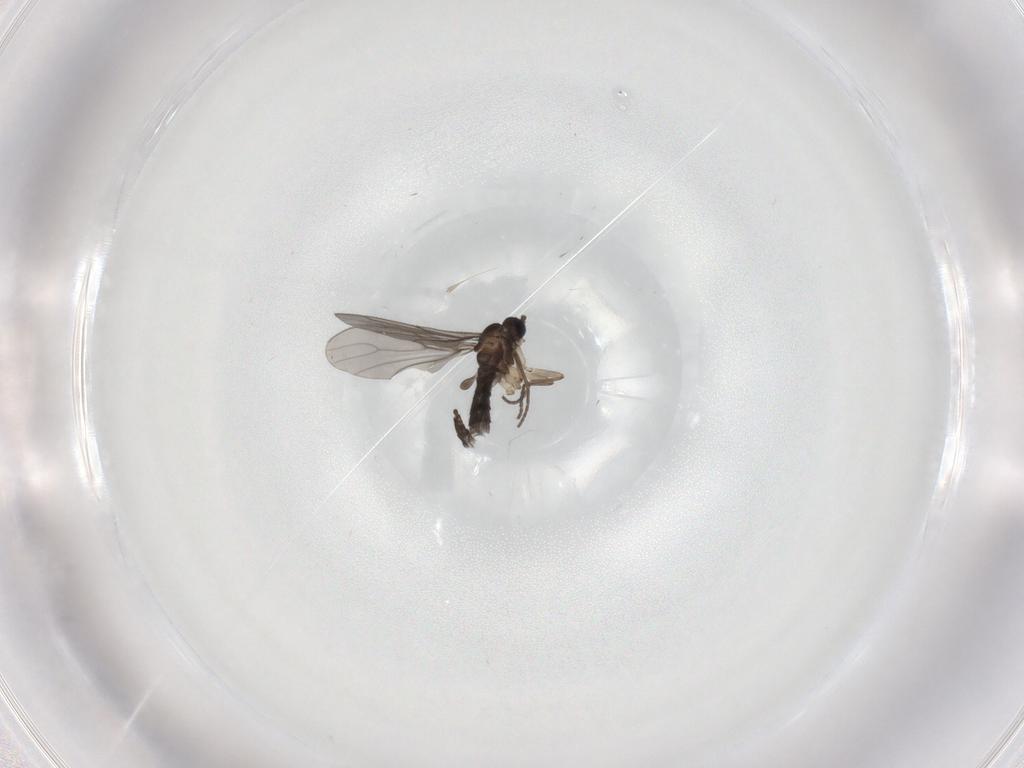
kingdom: Animalia
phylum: Arthropoda
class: Insecta
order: Diptera
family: Sciaridae
